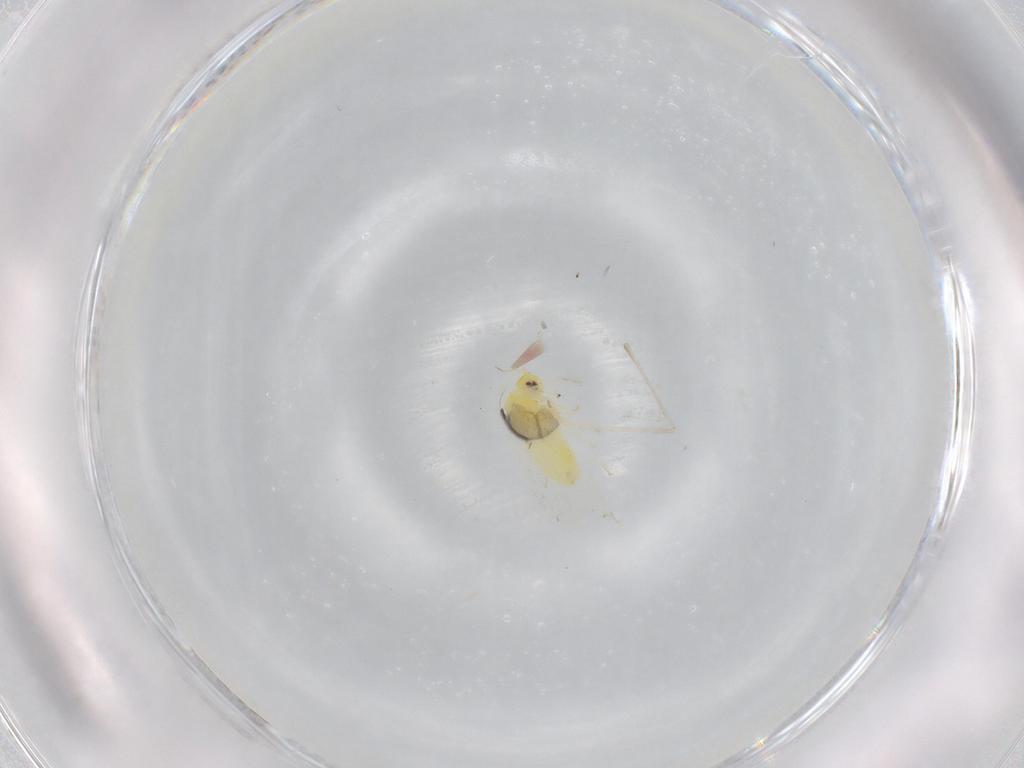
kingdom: Animalia
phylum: Arthropoda
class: Insecta
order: Hemiptera
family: Aleyrodidae
